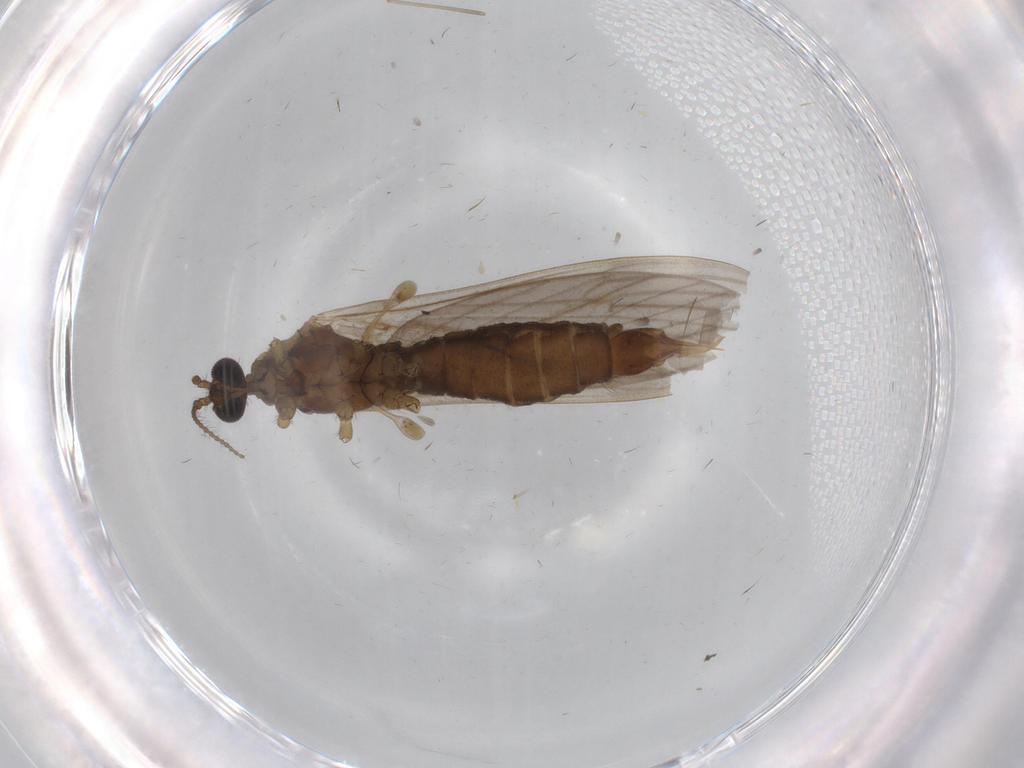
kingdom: Animalia
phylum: Arthropoda
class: Insecta
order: Diptera
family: Limoniidae
